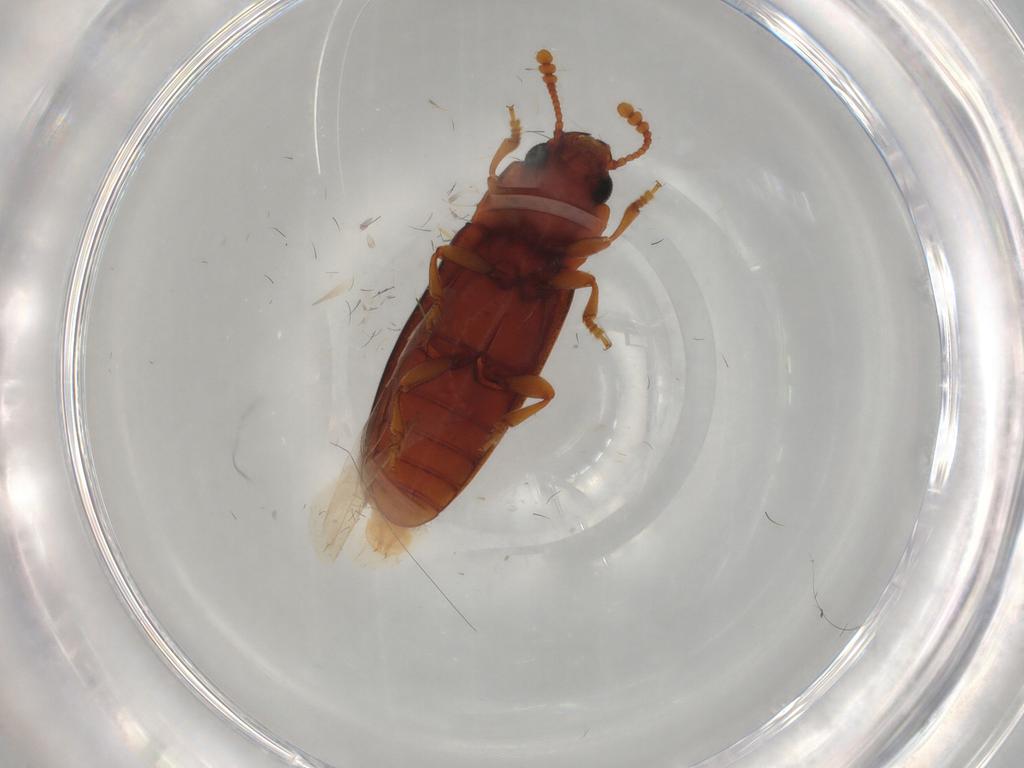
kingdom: Animalia
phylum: Arthropoda
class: Insecta
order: Coleoptera
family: Erotylidae
